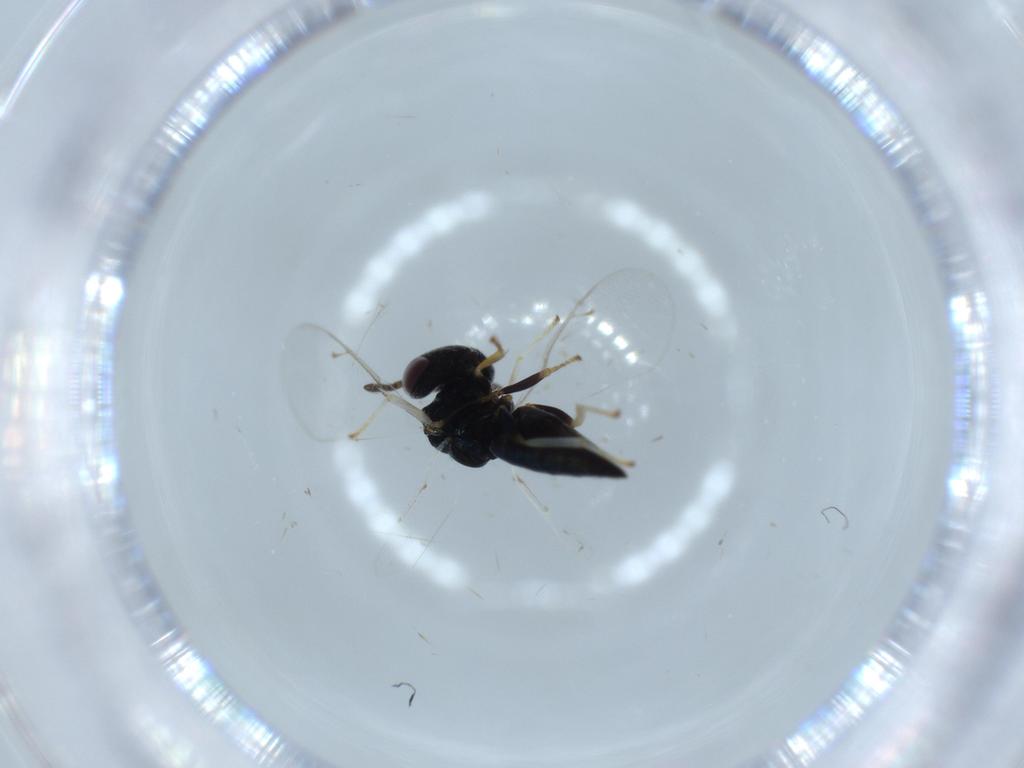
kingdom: Animalia
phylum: Arthropoda
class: Insecta
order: Hymenoptera
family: Pteromalidae
